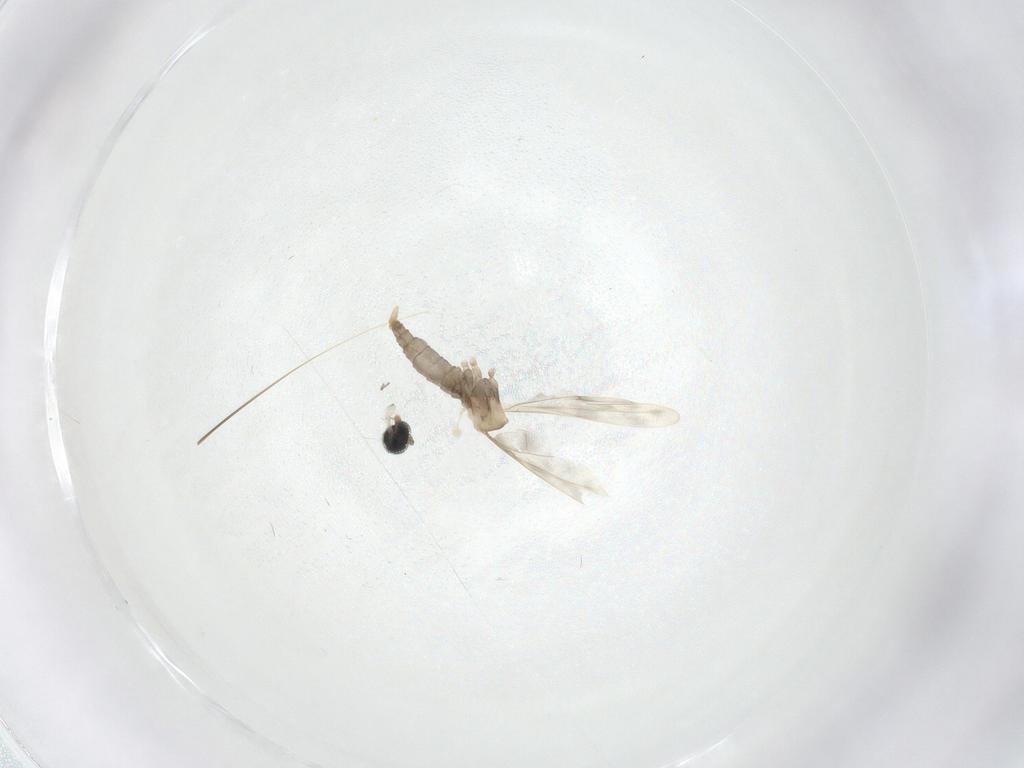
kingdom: Animalia
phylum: Arthropoda
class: Insecta
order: Diptera
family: Cecidomyiidae
